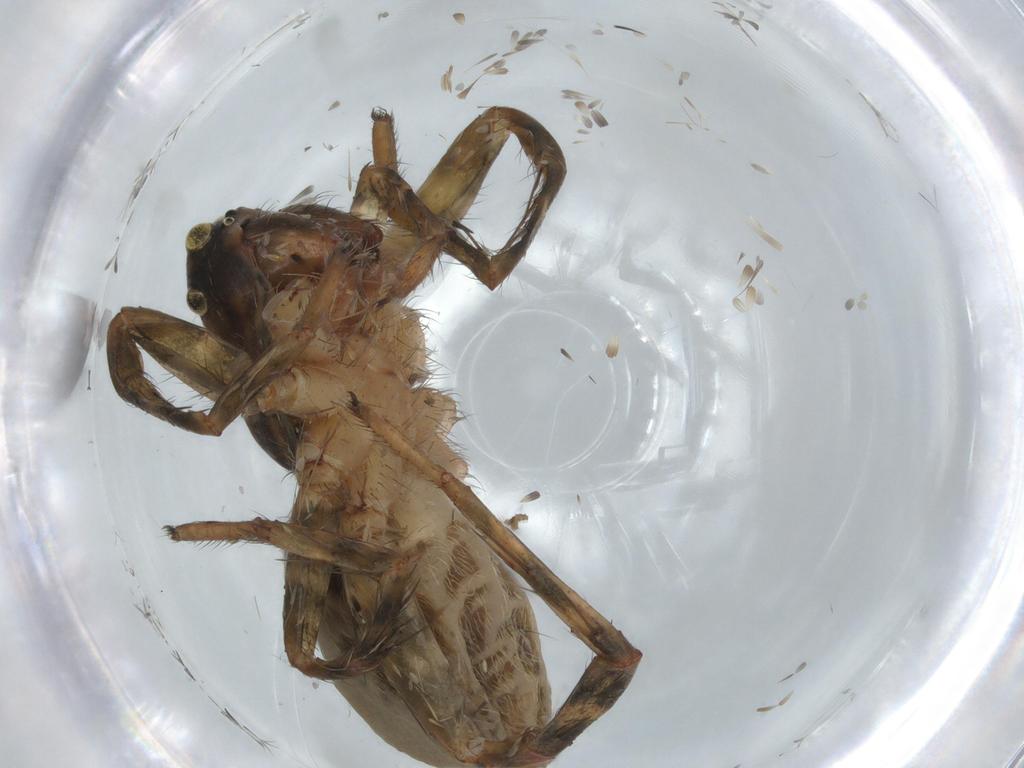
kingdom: Animalia
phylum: Arthropoda
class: Arachnida
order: Araneae
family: Lycosidae
